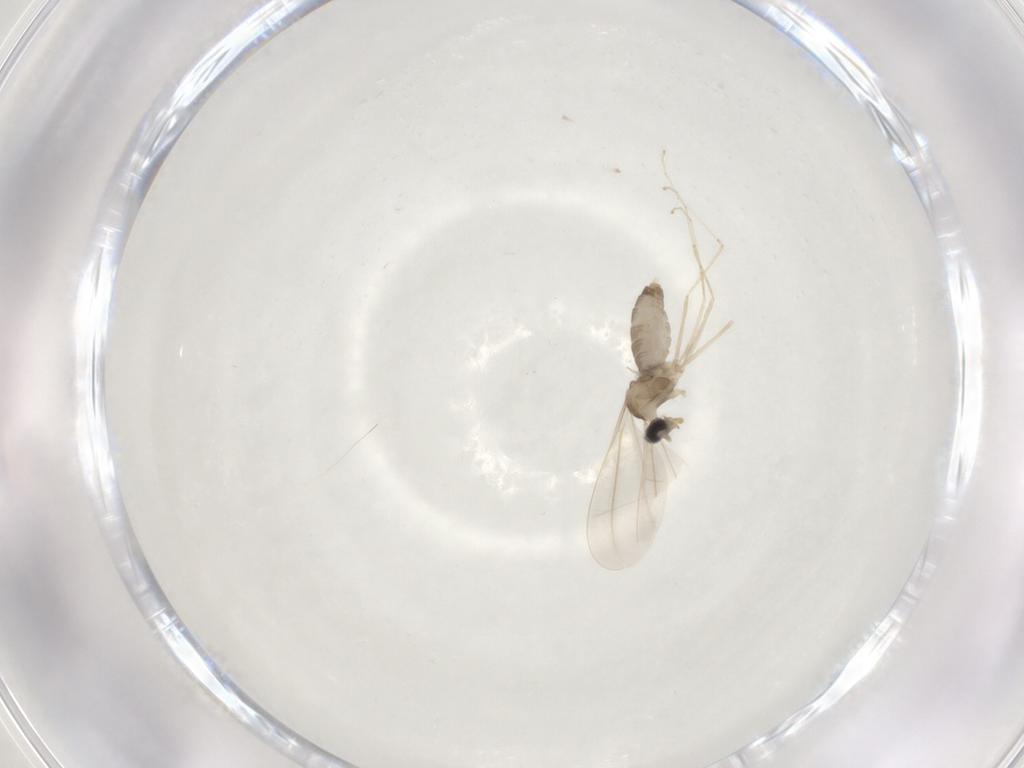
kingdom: Animalia
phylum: Arthropoda
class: Insecta
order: Diptera
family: Cecidomyiidae
